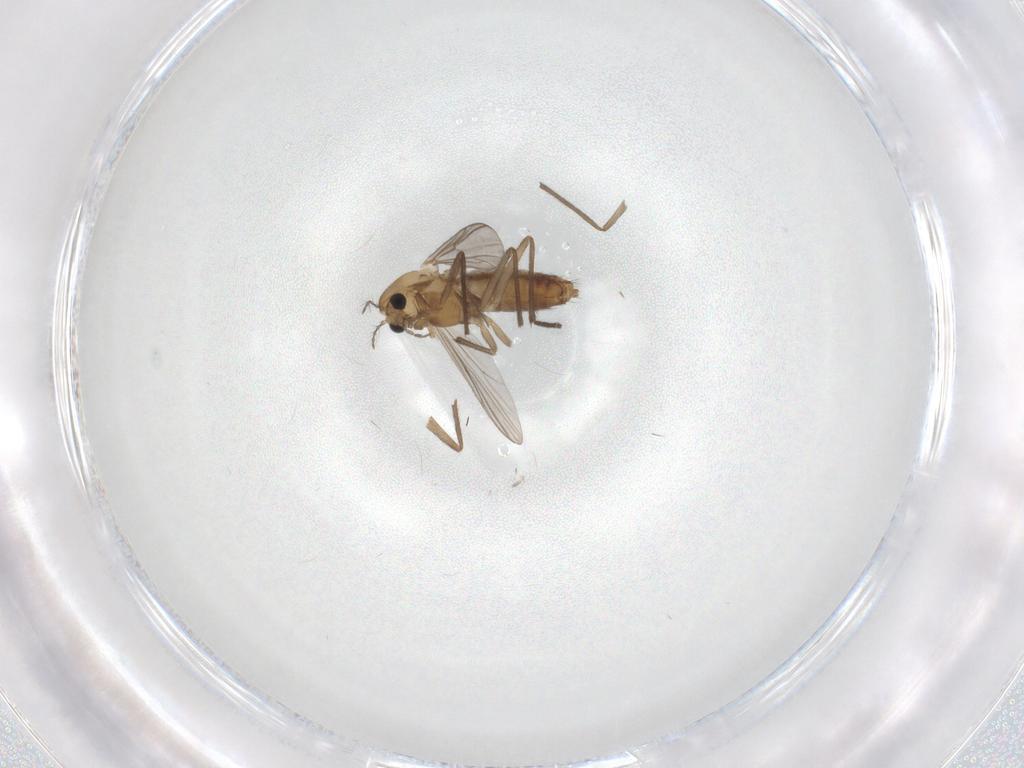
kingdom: Animalia
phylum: Arthropoda
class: Insecta
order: Diptera
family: Chironomidae
